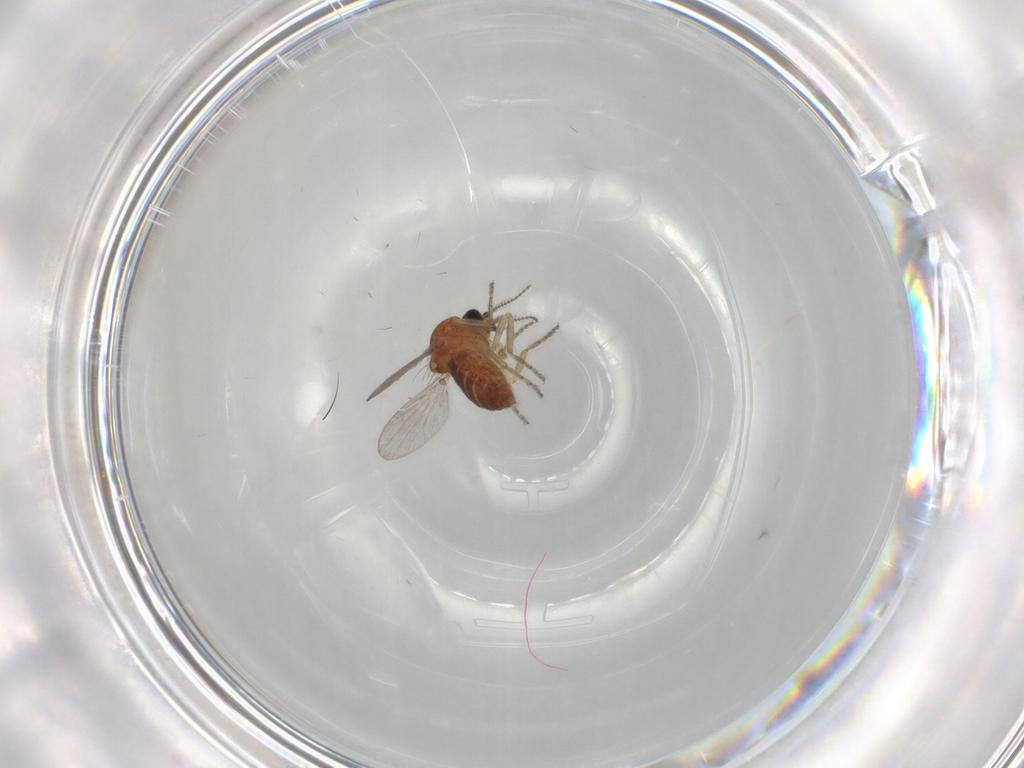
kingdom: Animalia
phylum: Arthropoda
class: Insecta
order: Diptera
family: Ceratopogonidae
